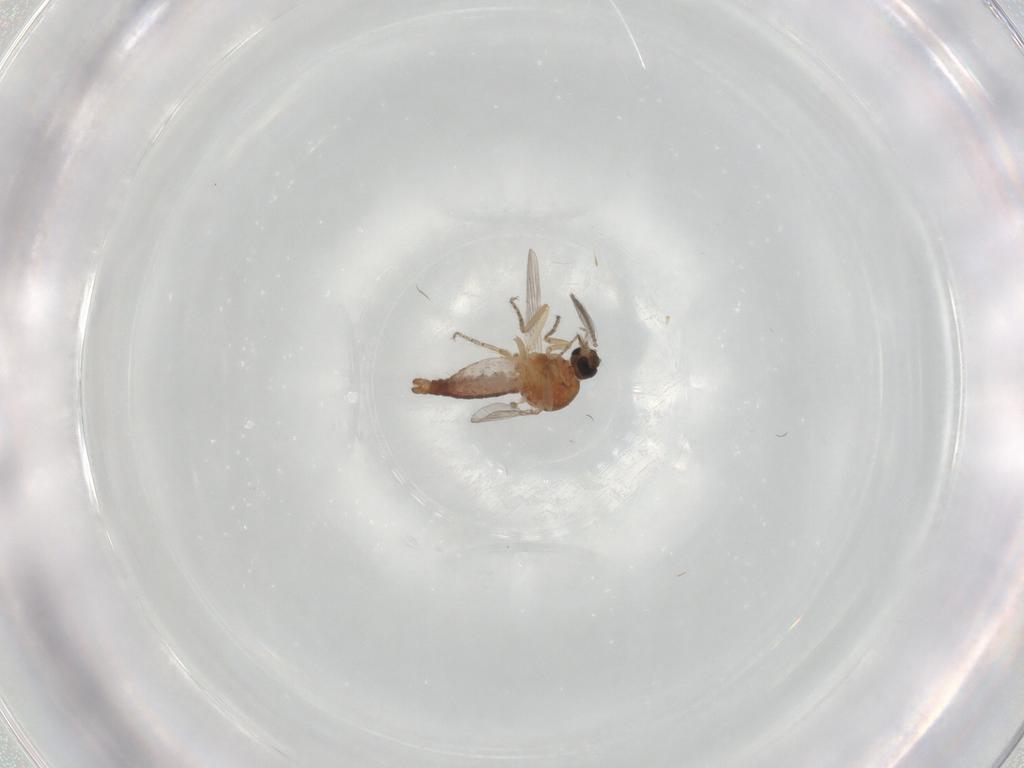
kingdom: Animalia
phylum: Arthropoda
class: Insecta
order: Diptera
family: Ceratopogonidae
